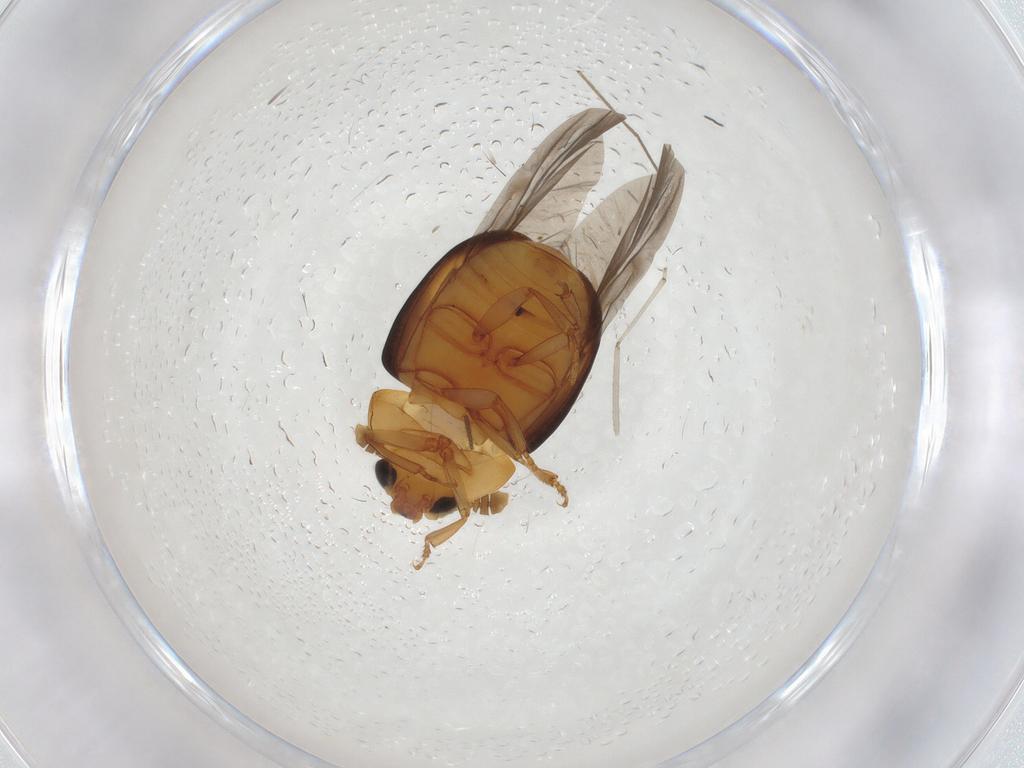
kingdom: Animalia
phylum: Arthropoda
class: Insecta
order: Coleoptera
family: Nitidulidae
